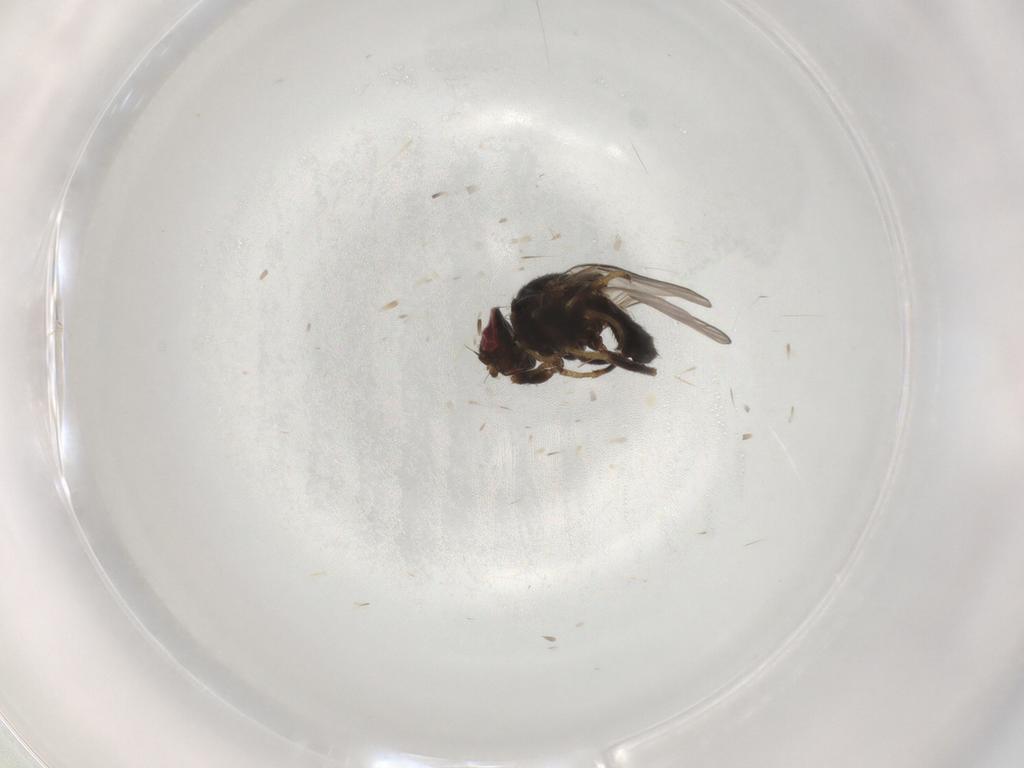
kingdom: Animalia
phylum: Arthropoda
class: Insecta
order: Diptera
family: Chloropidae
